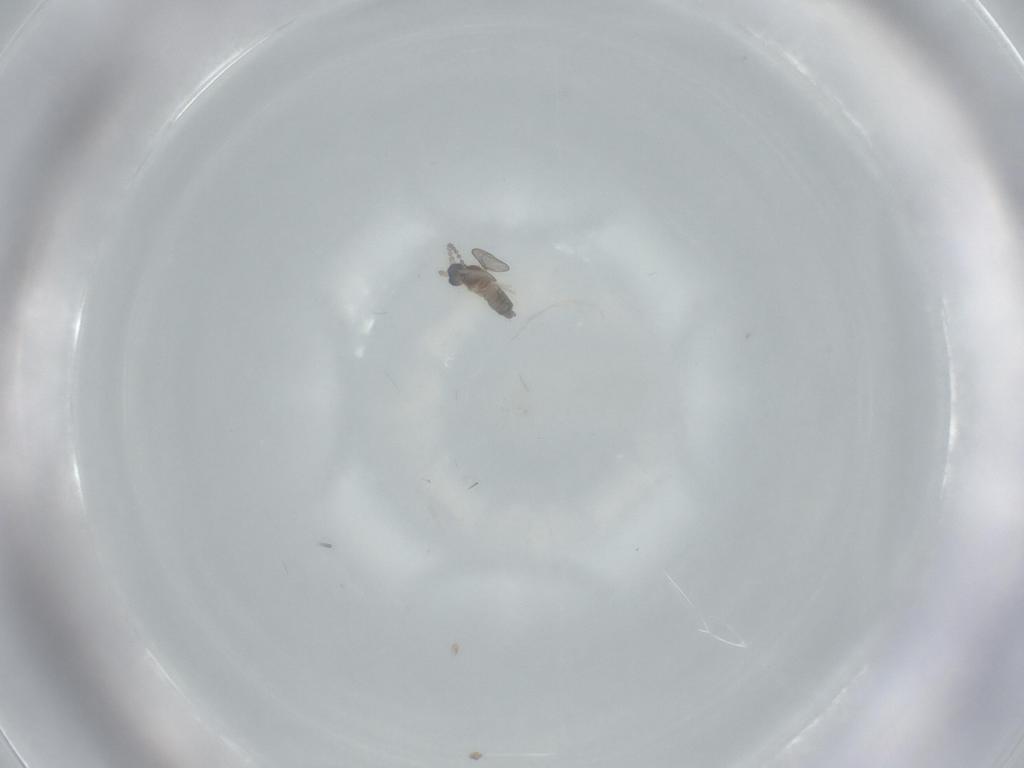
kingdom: Animalia
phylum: Arthropoda
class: Insecta
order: Diptera
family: Cecidomyiidae
